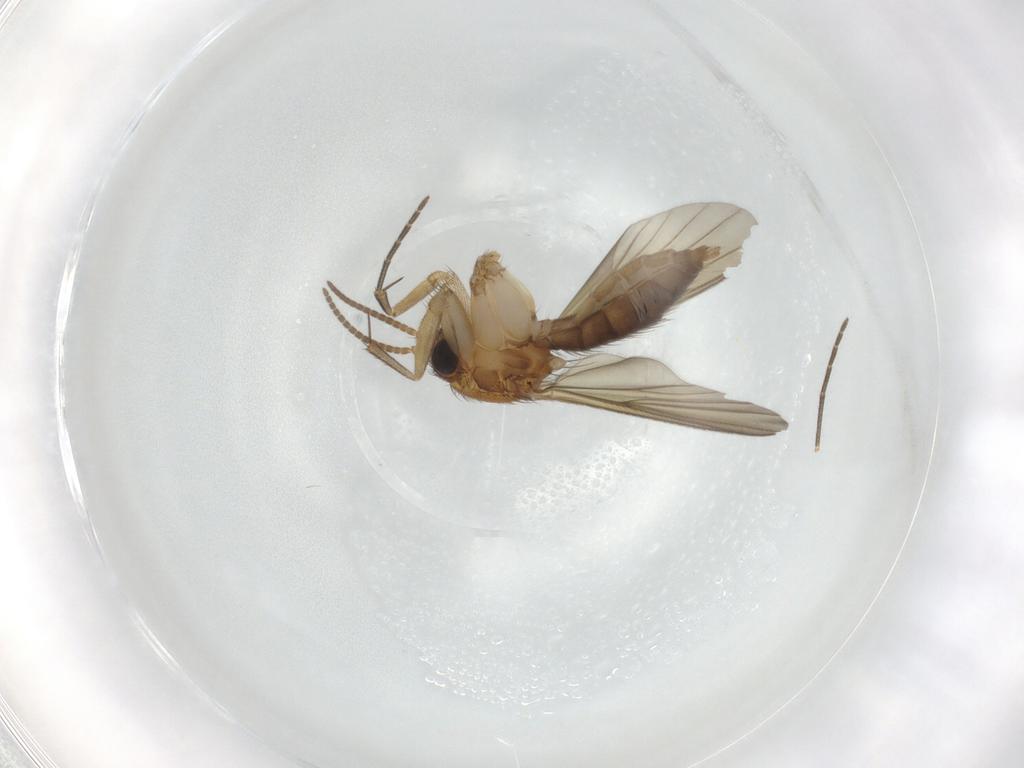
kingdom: Animalia
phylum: Arthropoda
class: Insecta
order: Diptera
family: Mycetophilidae
